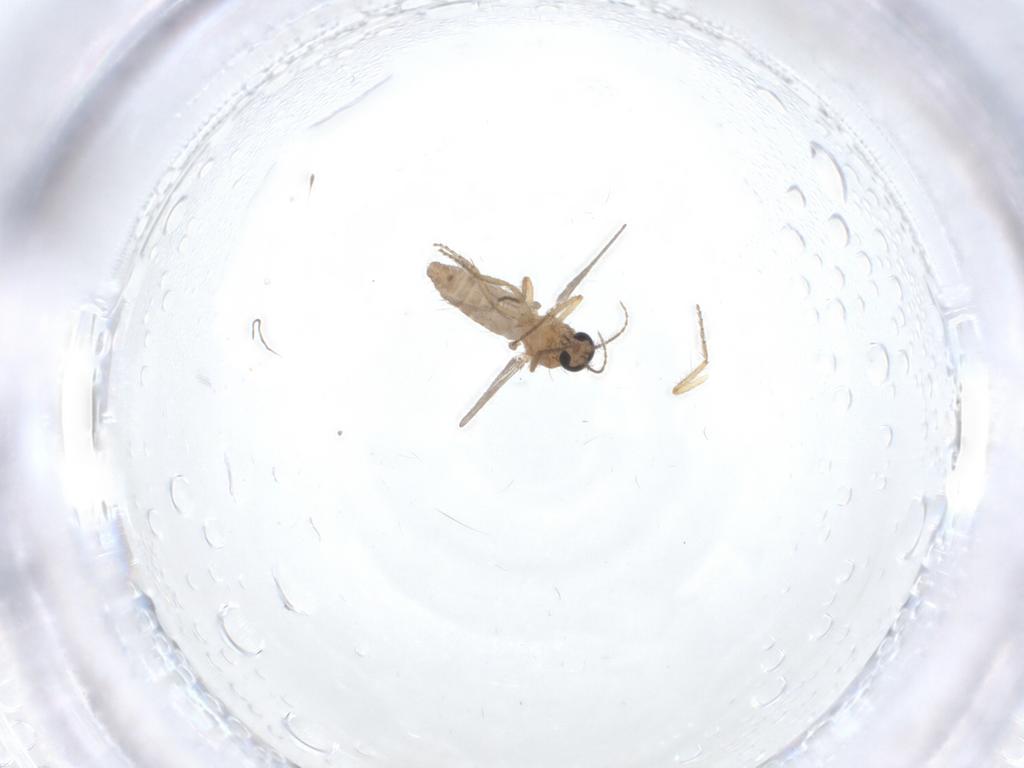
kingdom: Animalia
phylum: Arthropoda
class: Insecta
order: Diptera
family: Ceratopogonidae
